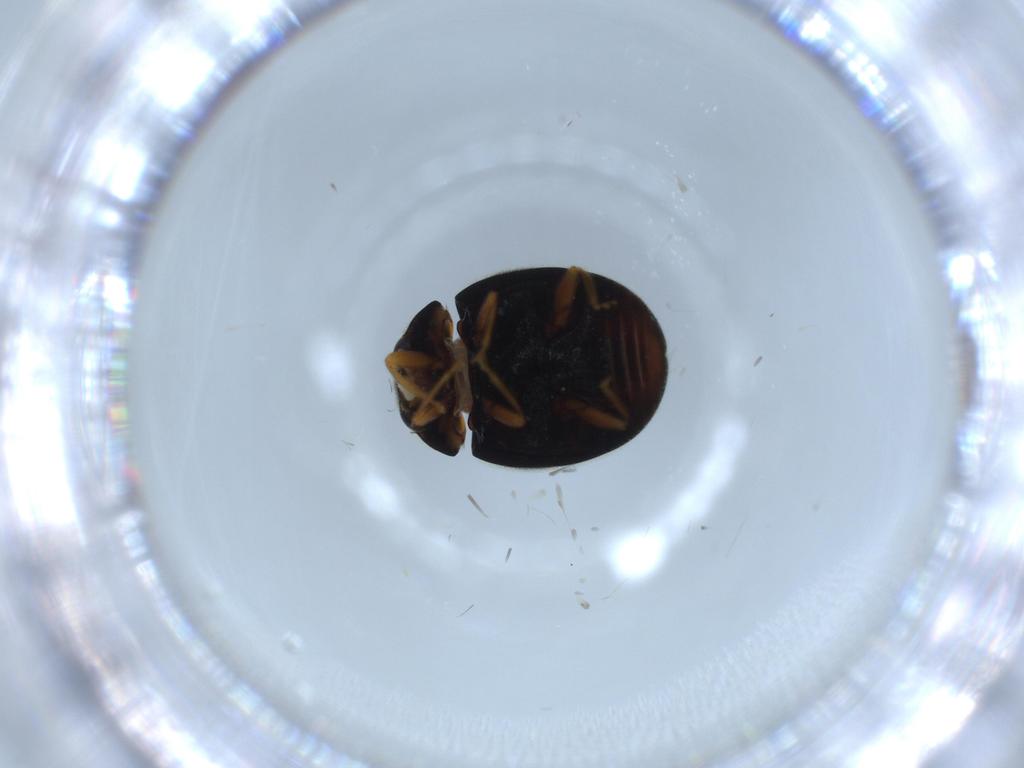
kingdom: Animalia
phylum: Arthropoda
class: Insecta
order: Coleoptera
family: Coccinellidae
